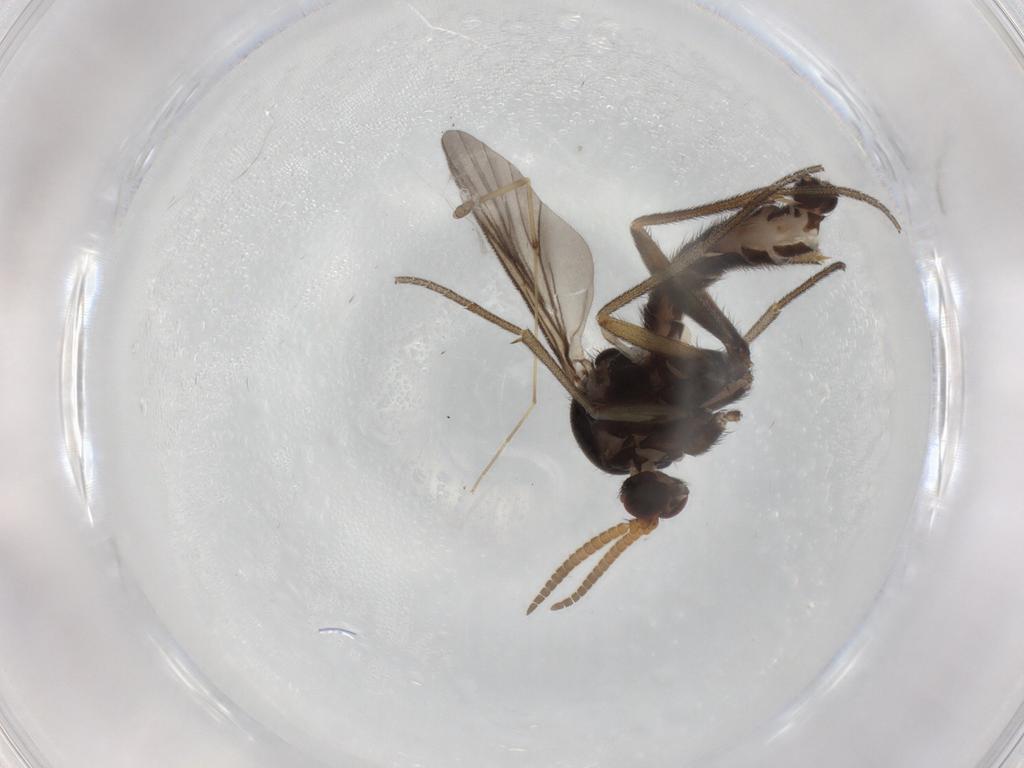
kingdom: Animalia
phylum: Arthropoda
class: Insecta
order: Diptera
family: Mycetophilidae
